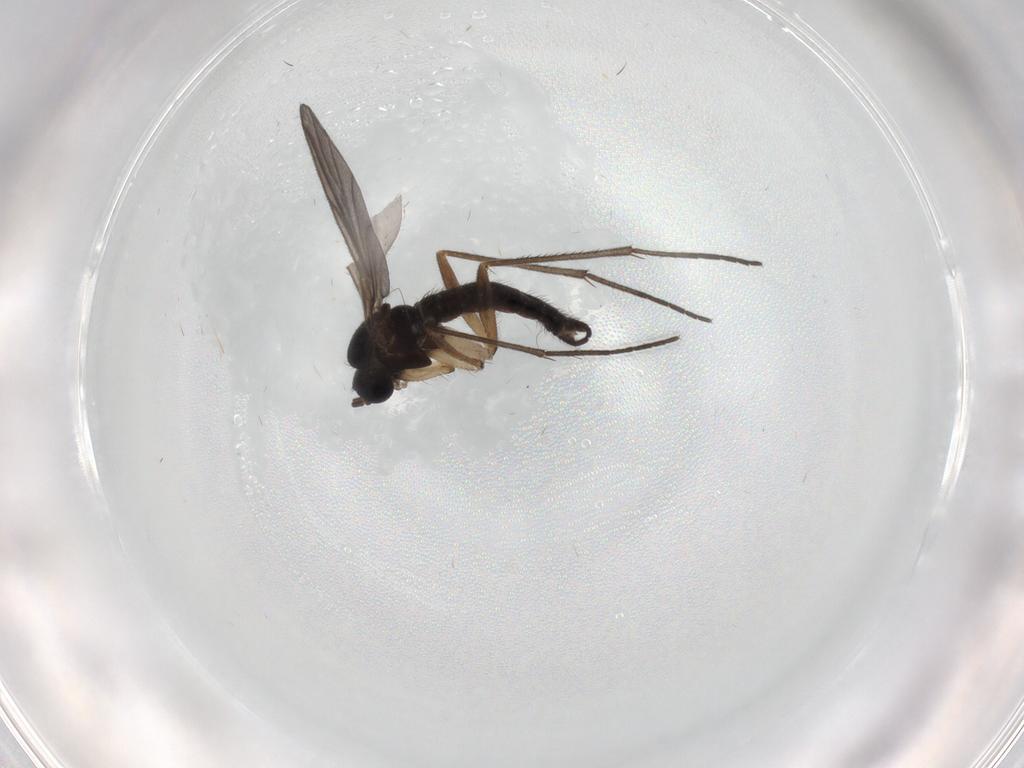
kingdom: Animalia
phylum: Arthropoda
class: Insecta
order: Diptera
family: Sciaridae
